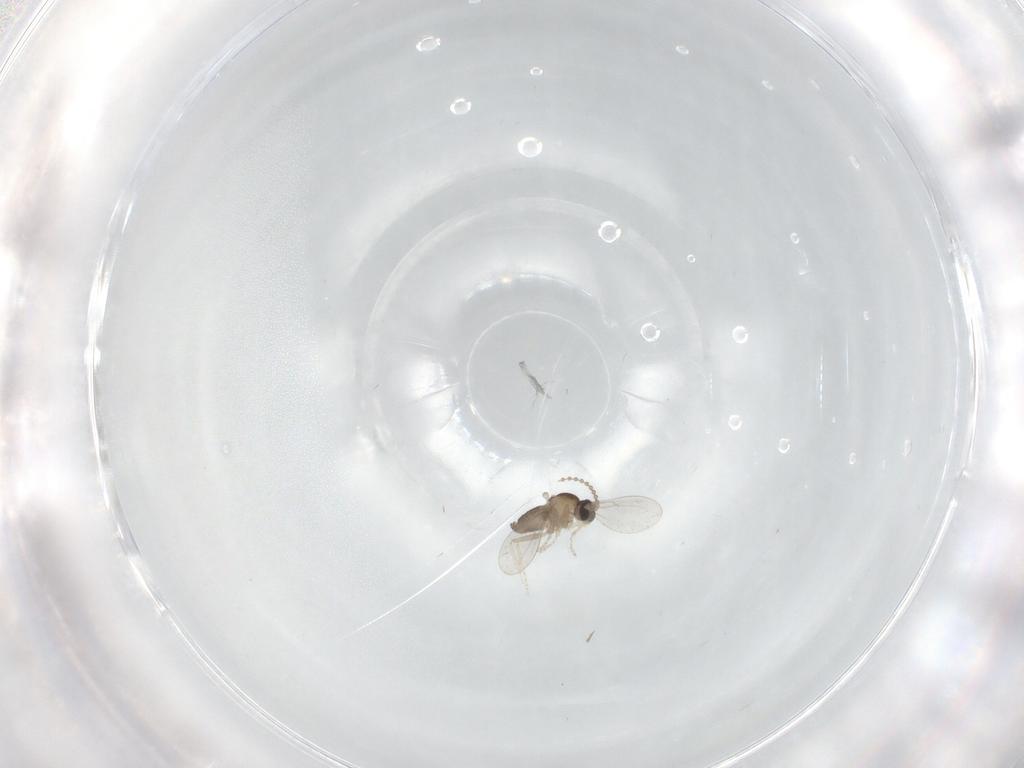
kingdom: Animalia
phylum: Arthropoda
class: Insecta
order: Diptera
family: Cecidomyiidae
